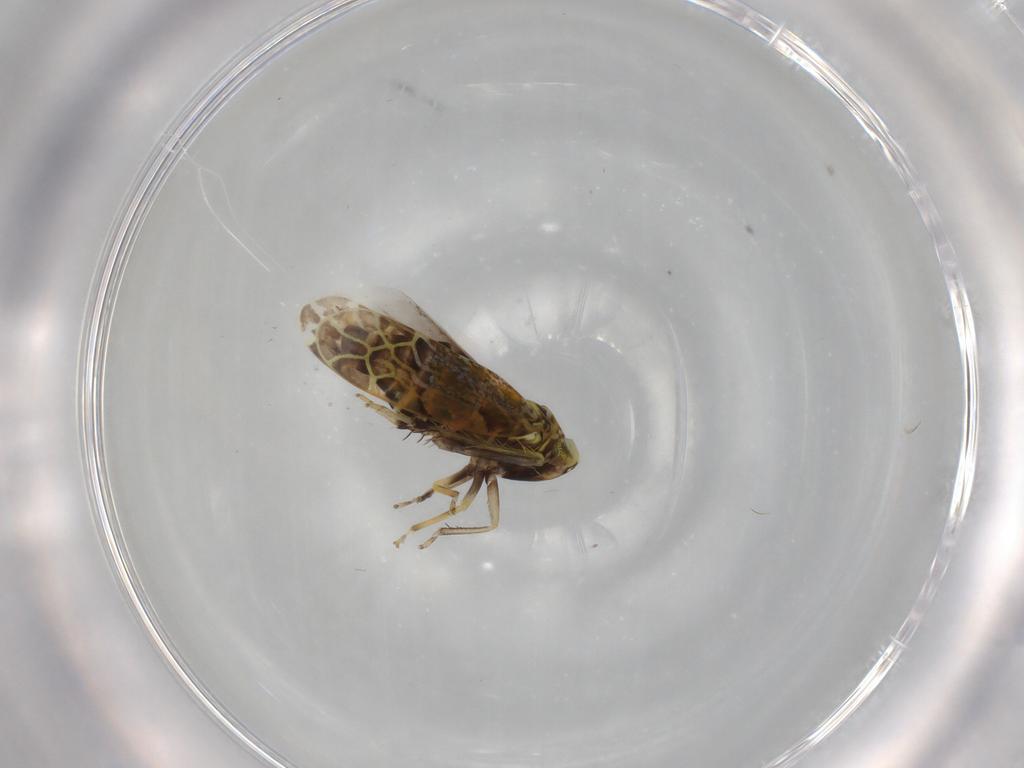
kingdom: Animalia
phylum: Arthropoda
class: Insecta
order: Hemiptera
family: Cicadellidae
